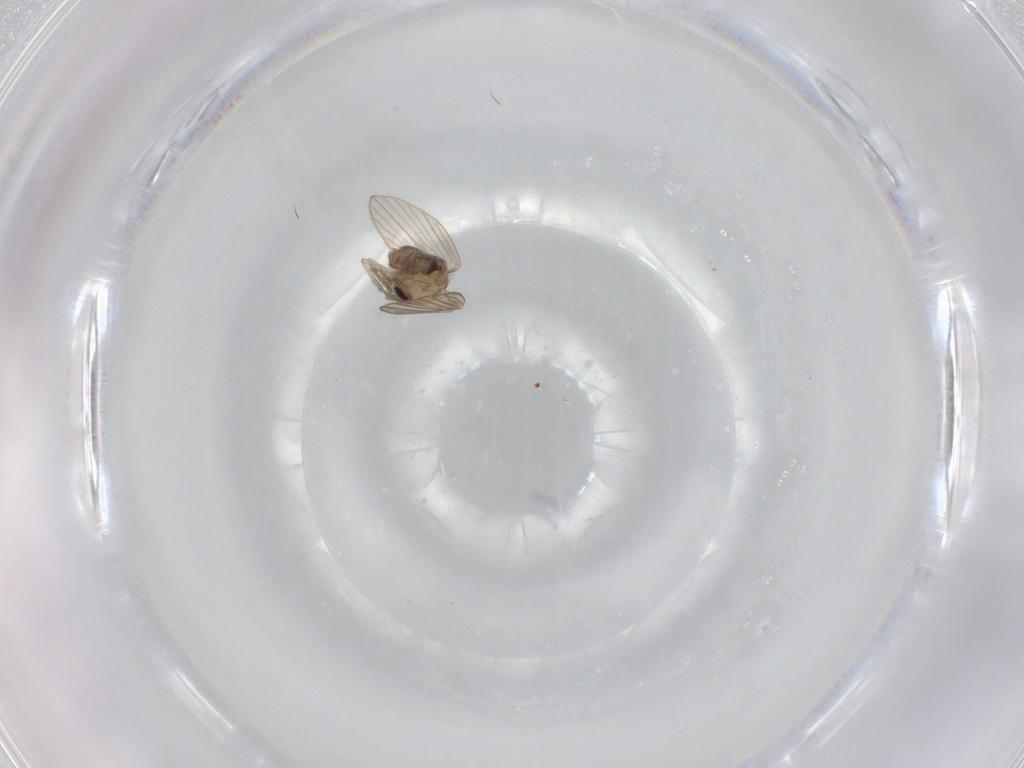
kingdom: Animalia
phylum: Arthropoda
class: Insecta
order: Diptera
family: Psychodidae
